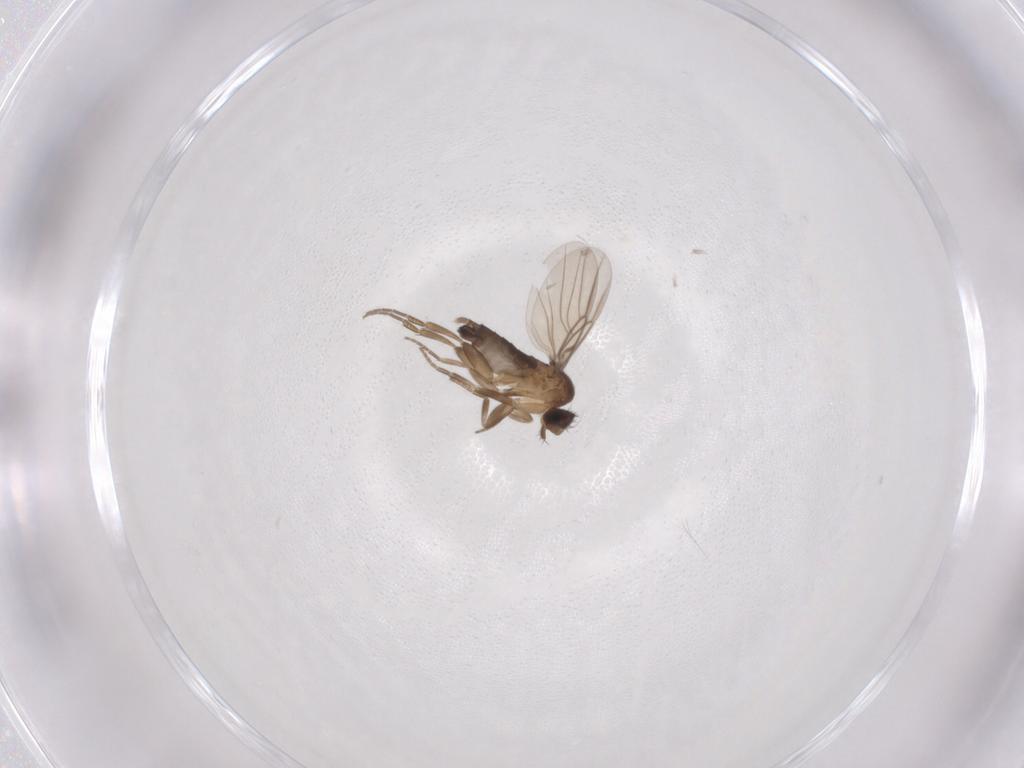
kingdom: Animalia
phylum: Arthropoda
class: Insecta
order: Diptera
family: Phoridae
